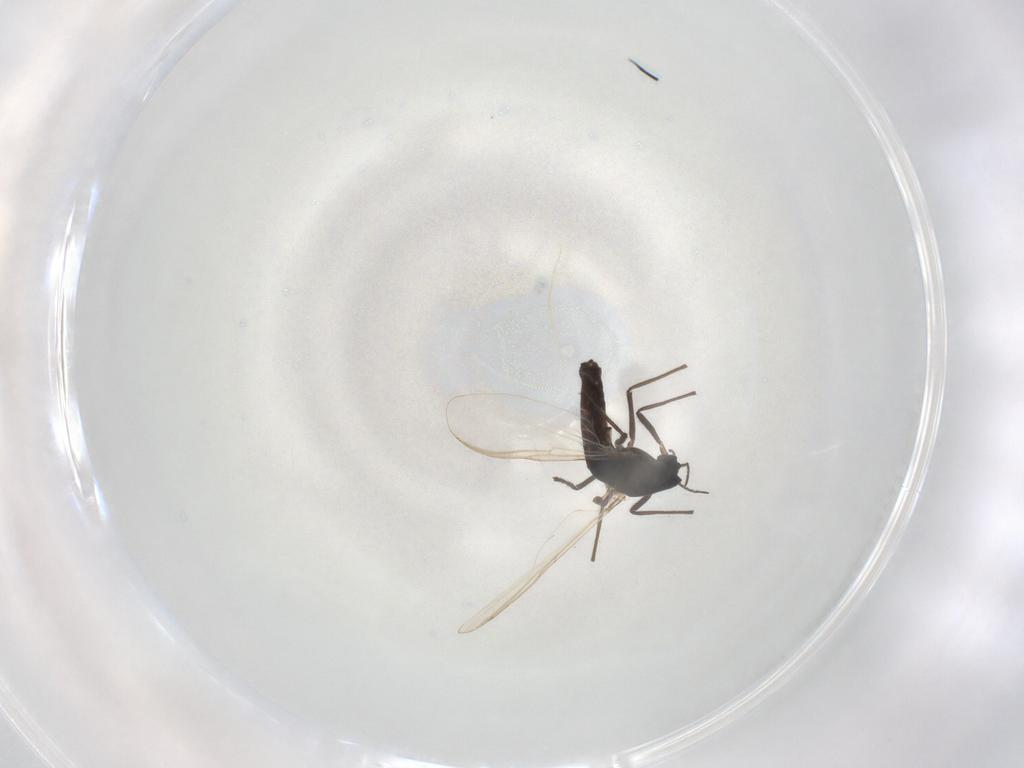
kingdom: Animalia
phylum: Arthropoda
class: Insecta
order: Diptera
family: Chironomidae
